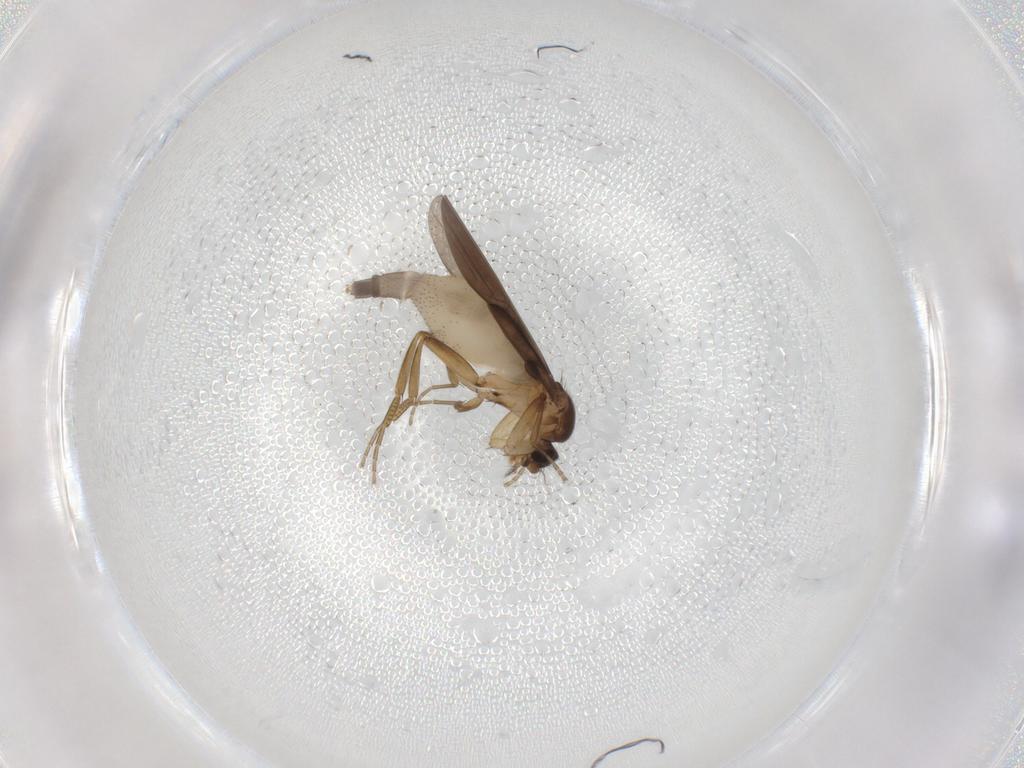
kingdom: Animalia
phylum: Arthropoda
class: Insecta
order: Diptera
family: Phoridae
